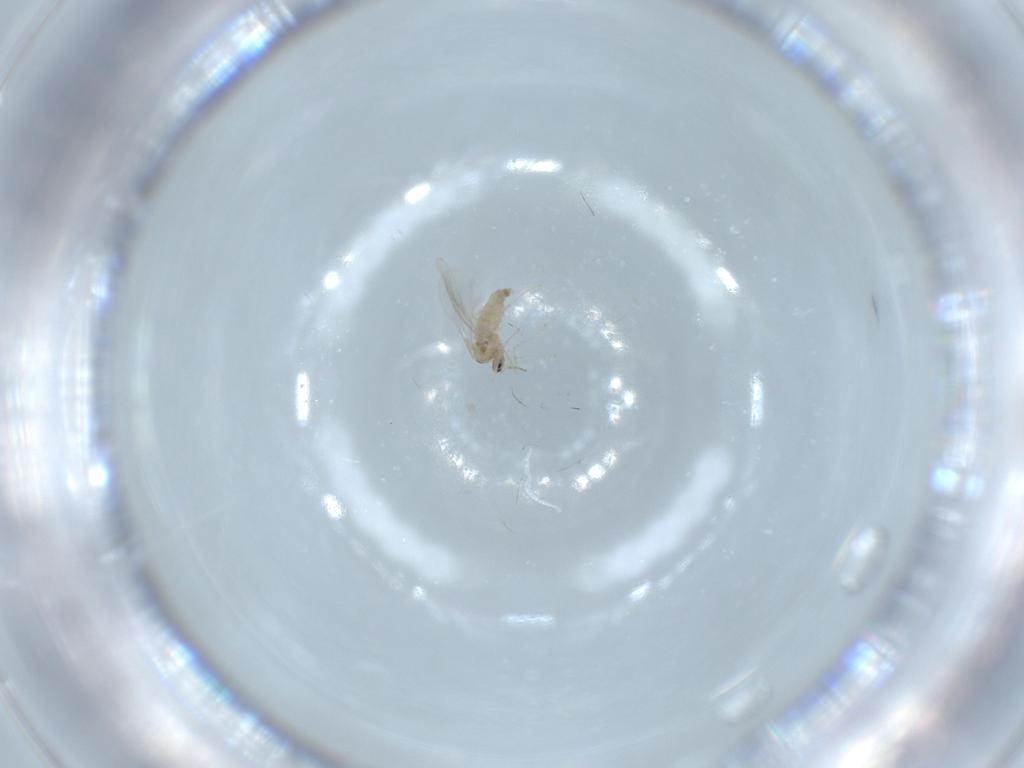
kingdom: Animalia
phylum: Arthropoda
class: Insecta
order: Diptera
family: Cecidomyiidae
